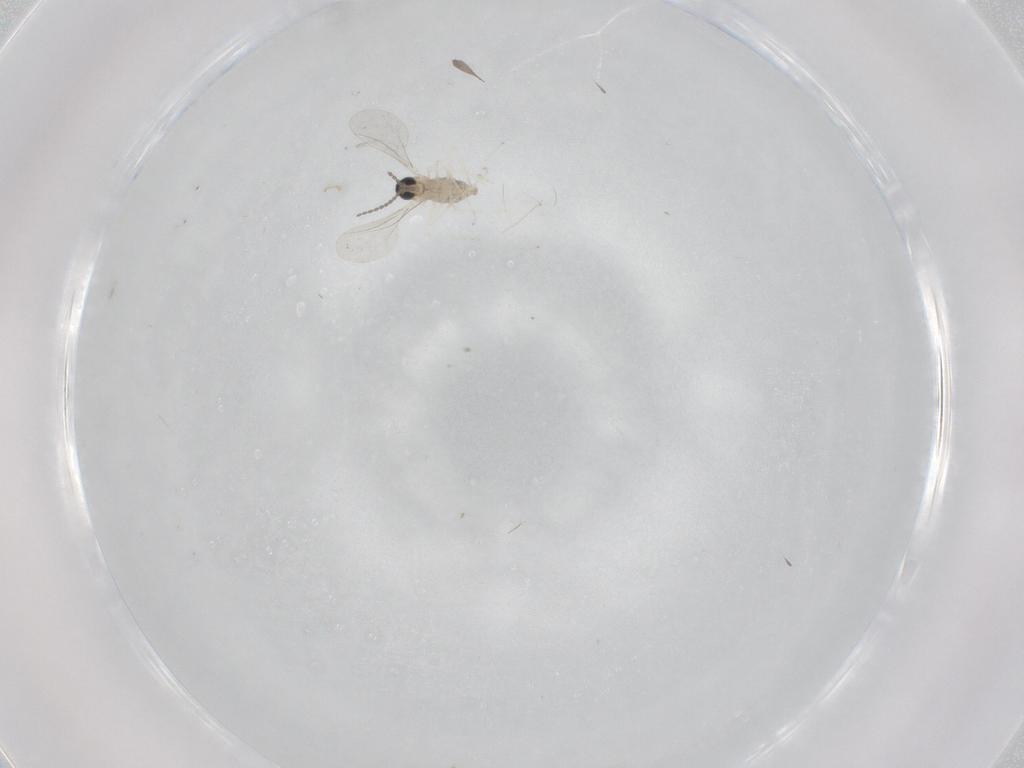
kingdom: Animalia
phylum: Arthropoda
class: Insecta
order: Diptera
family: Cecidomyiidae
